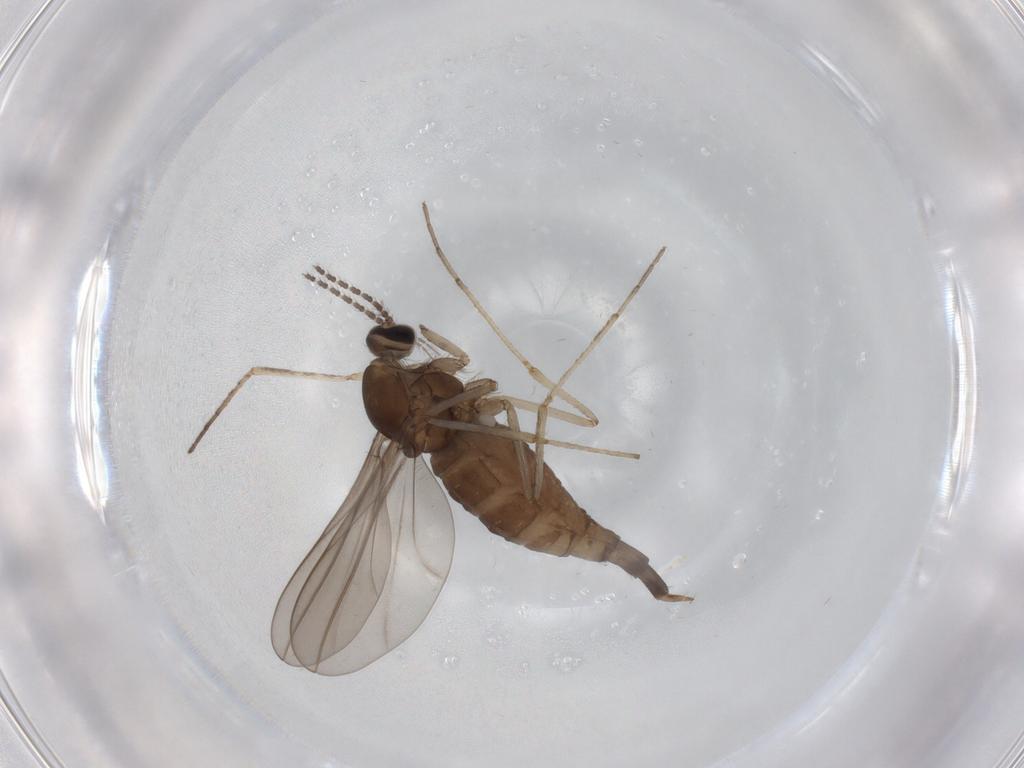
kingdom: Animalia
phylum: Arthropoda
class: Insecta
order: Diptera
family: Cecidomyiidae
